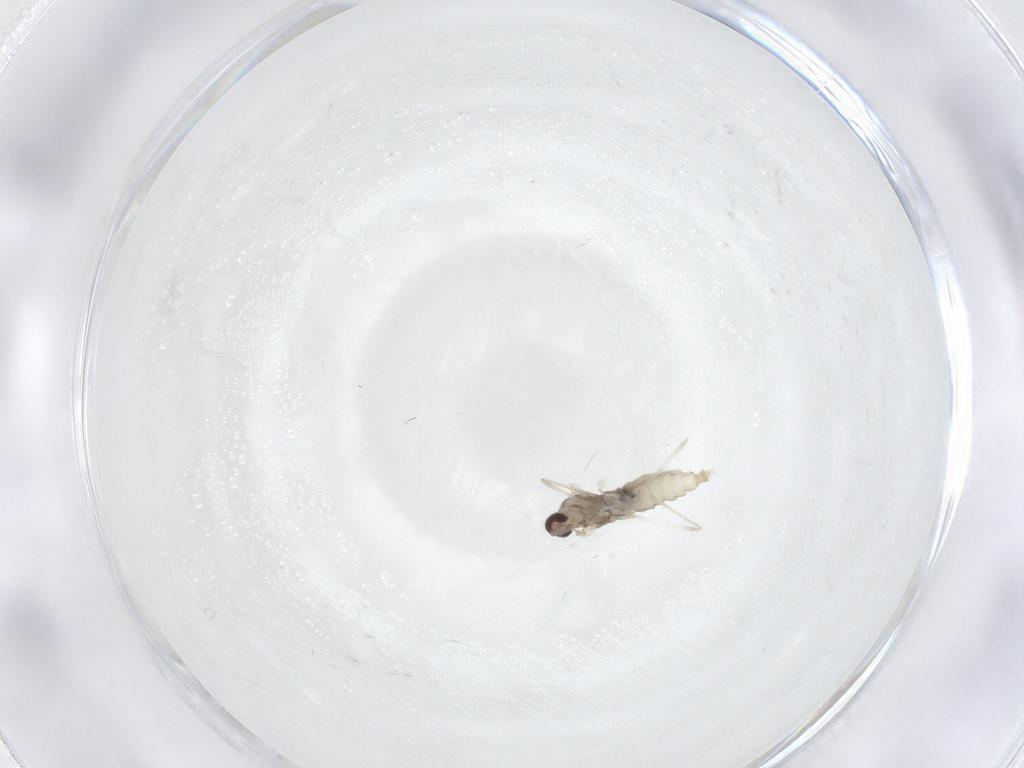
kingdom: Animalia
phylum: Arthropoda
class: Insecta
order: Diptera
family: Cecidomyiidae
